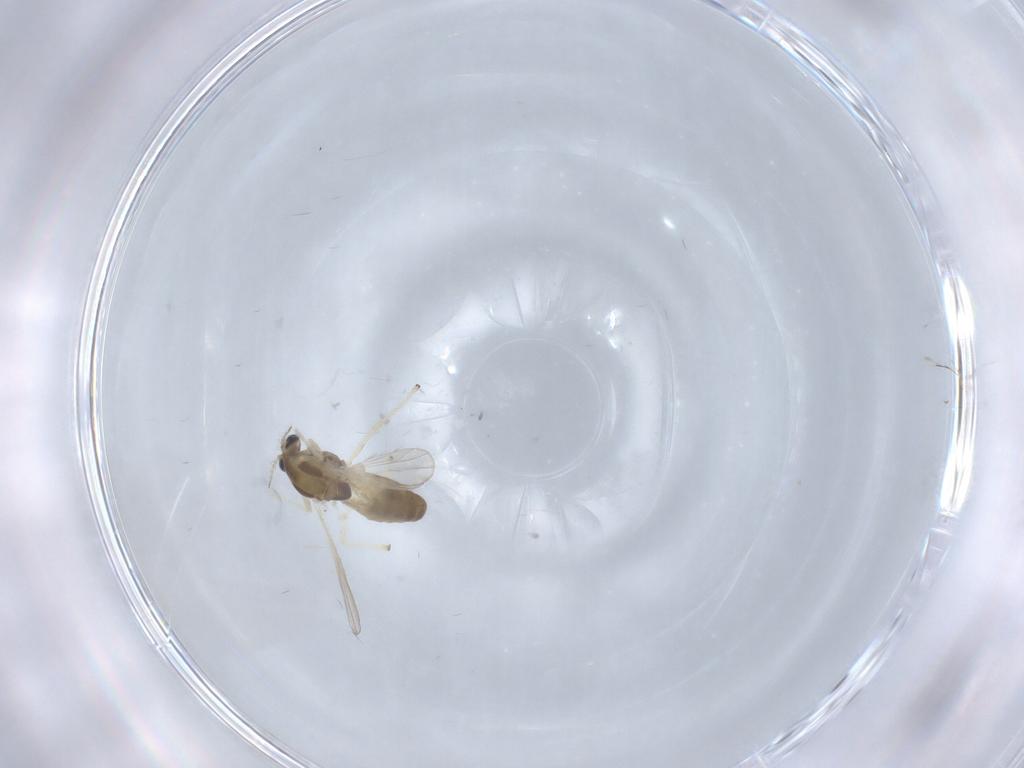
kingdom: Animalia
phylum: Arthropoda
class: Insecta
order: Diptera
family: Chironomidae
